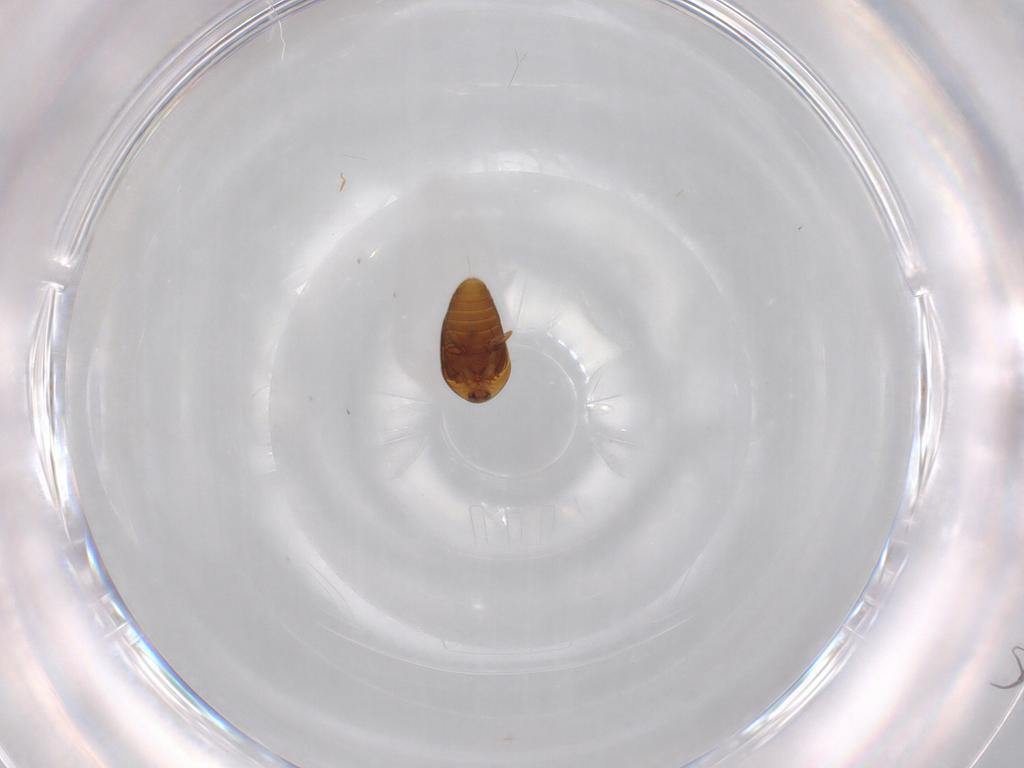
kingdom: Animalia
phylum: Arthropoda
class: Insecta
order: Coleoptera
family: Corylophidae
